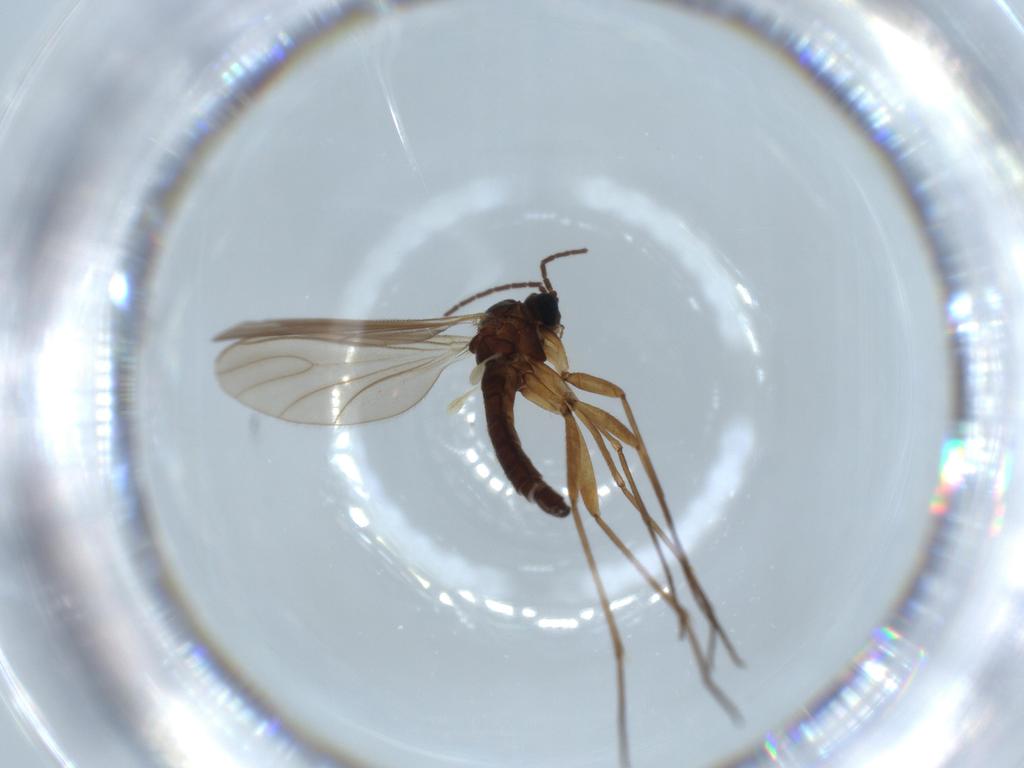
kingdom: Animalia
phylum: Arthropoda
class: Insecta
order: Diptera
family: Sciaridae
